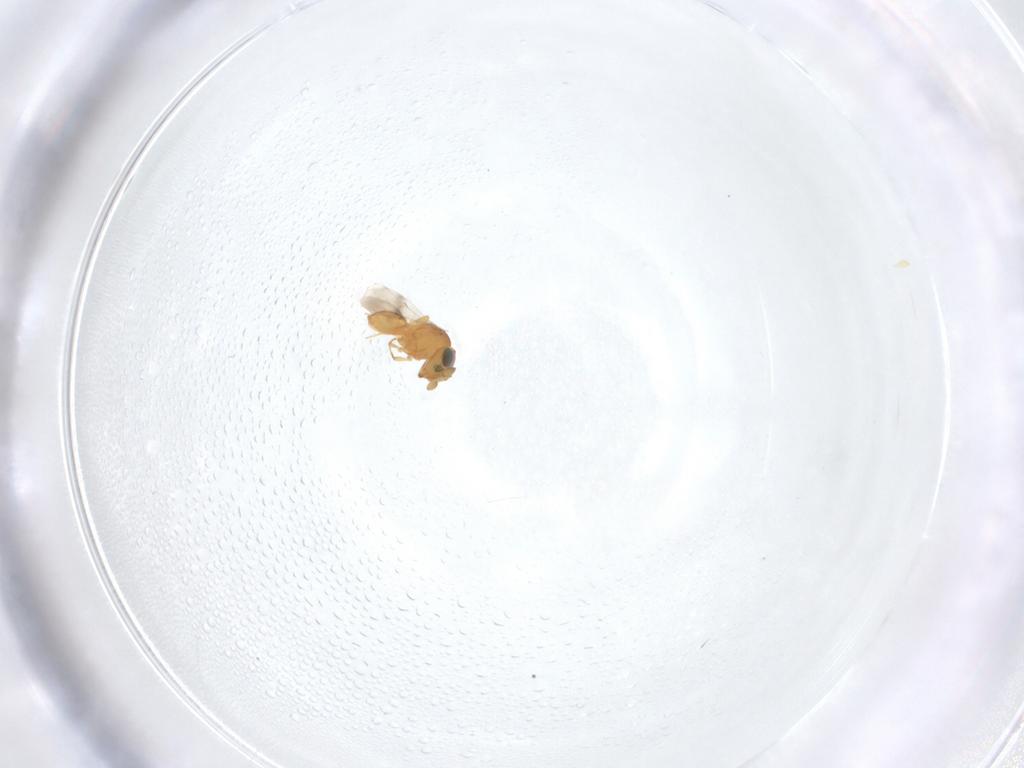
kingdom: Animalia
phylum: Arthropoda
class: Insecta
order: Hymenoptera
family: Scelionidae
